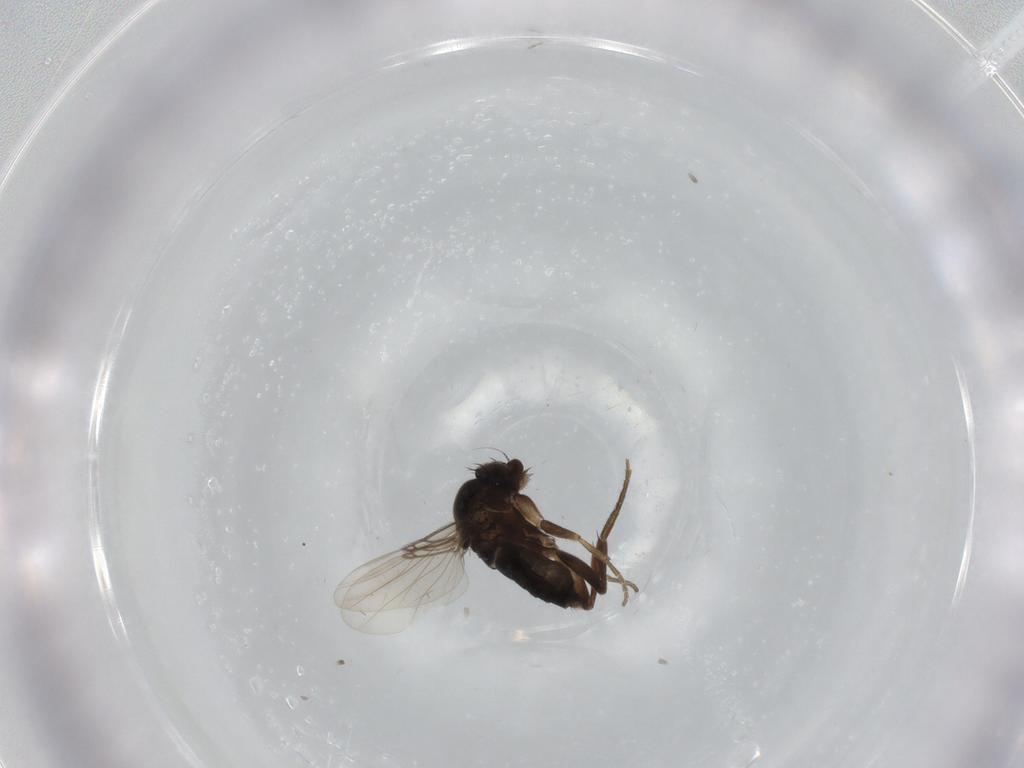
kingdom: Animalia
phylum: Arthropoda
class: Insecta
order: Diptera
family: Phoridae
